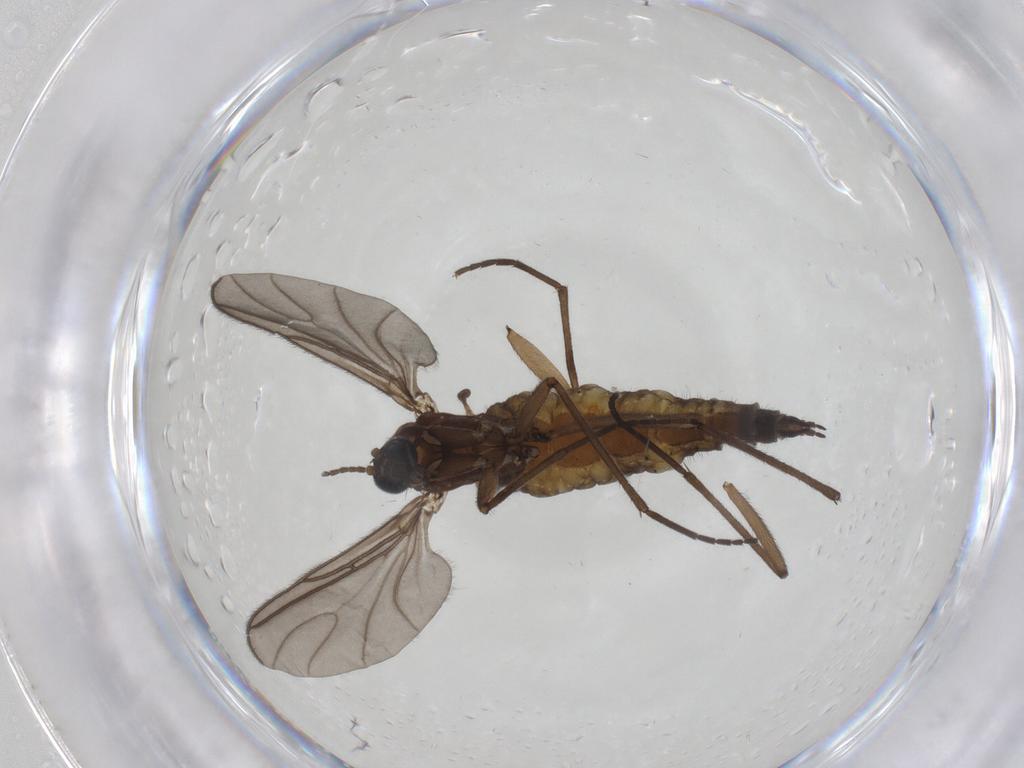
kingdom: Animalia
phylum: Arthropoda
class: Insecta
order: Diptera
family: Sciaridae
